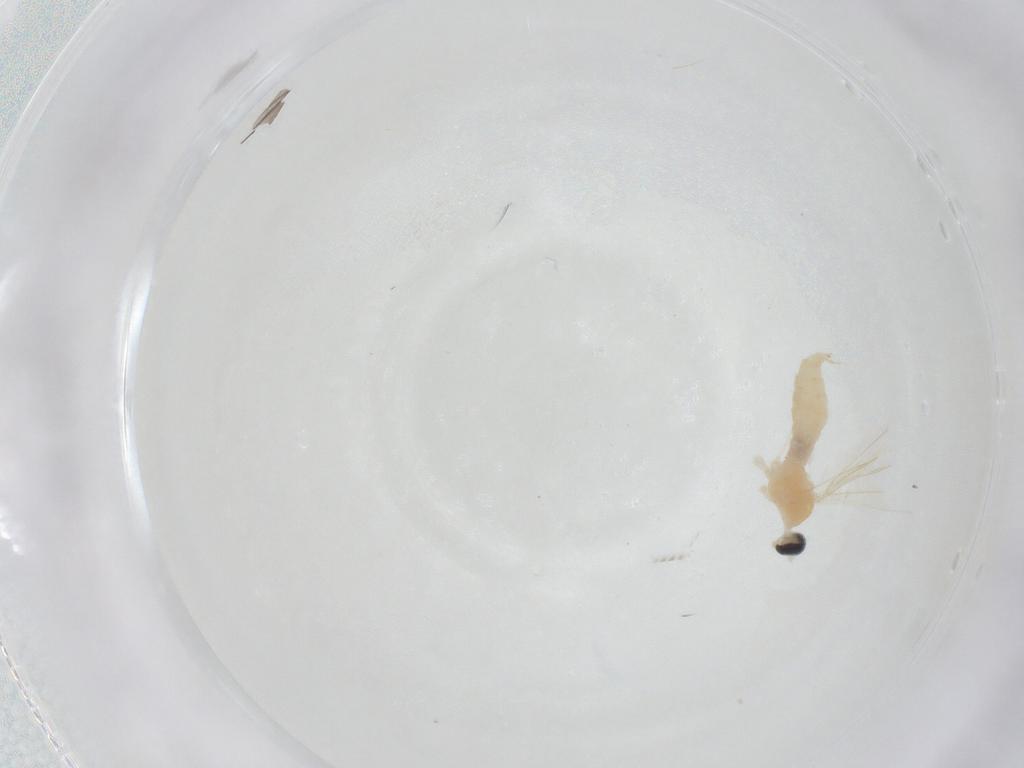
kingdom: Animalia
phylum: Arthropoda
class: Insecta
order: Diptera
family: Cecidomyiidae
